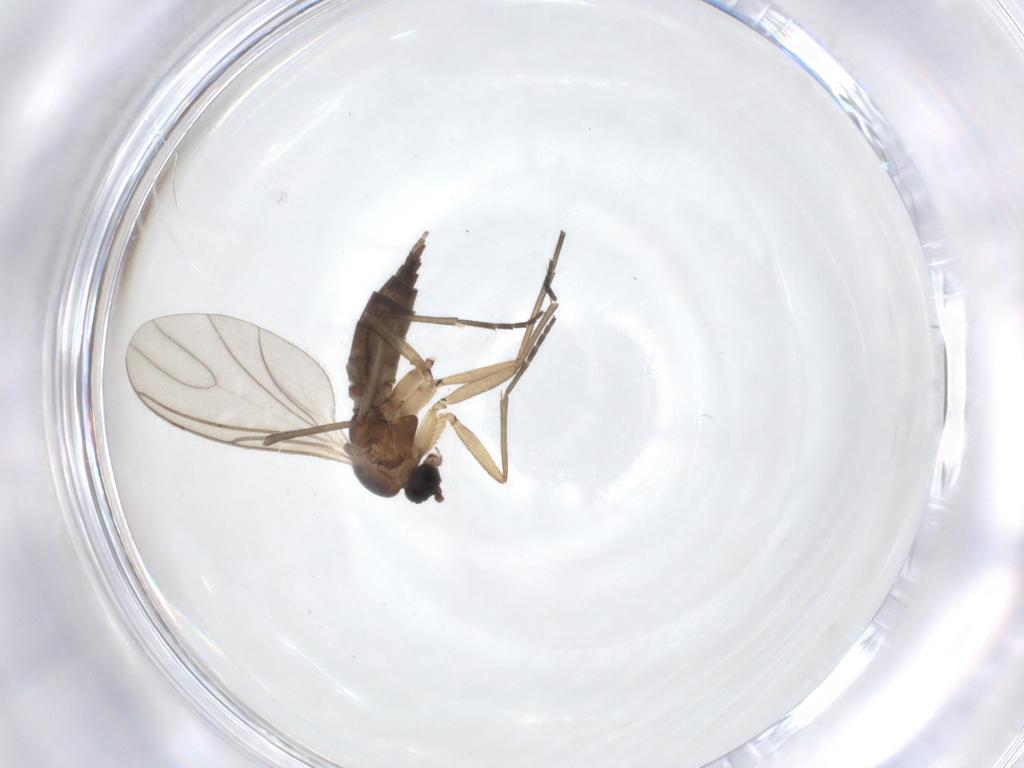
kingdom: Animalia
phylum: Arthropoda
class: Insecta
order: Diptera
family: Sciaridae
